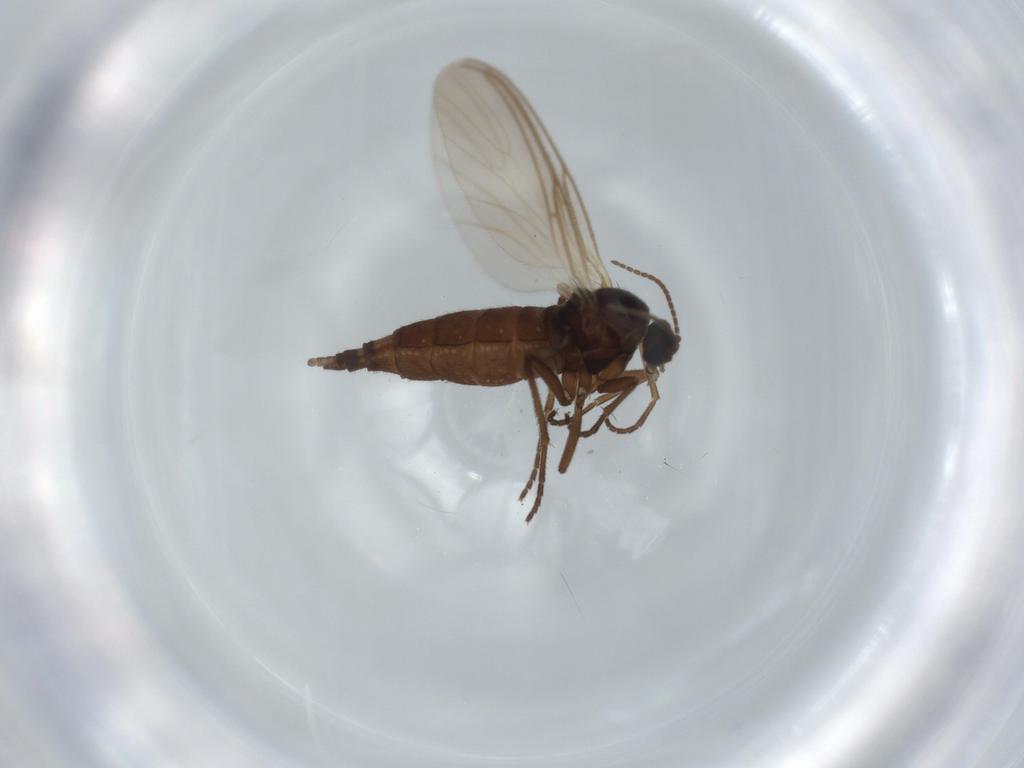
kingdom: Animalia
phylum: Arthropoda
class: Insecta
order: Diptera
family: Sciaridae
